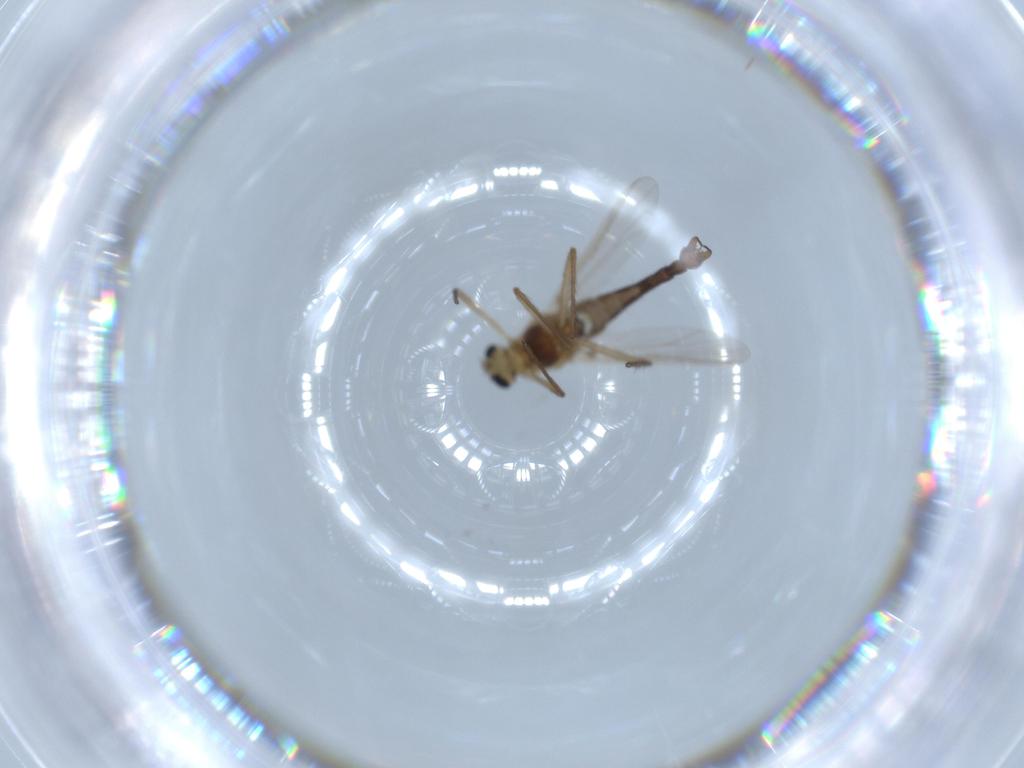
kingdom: Animalia
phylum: Arthropoda
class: Insecta
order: Diptera
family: Chironomidae
